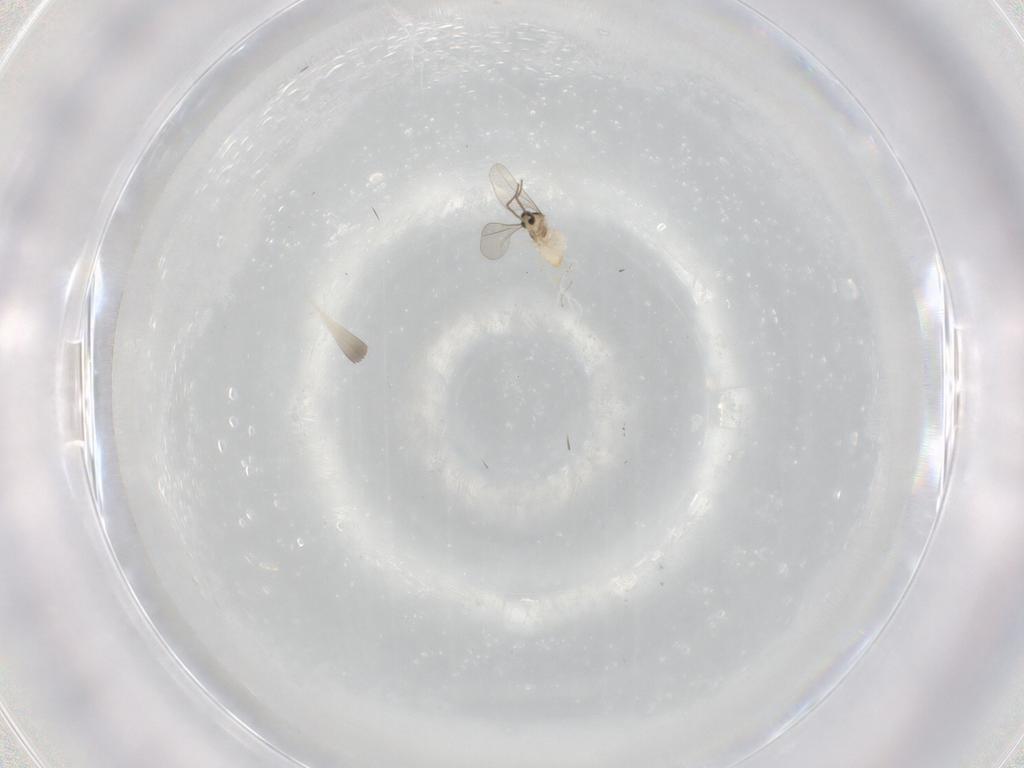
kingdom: Animalia
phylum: Arthropoda
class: Insecta
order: Diptera
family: Cecidomyiidae
